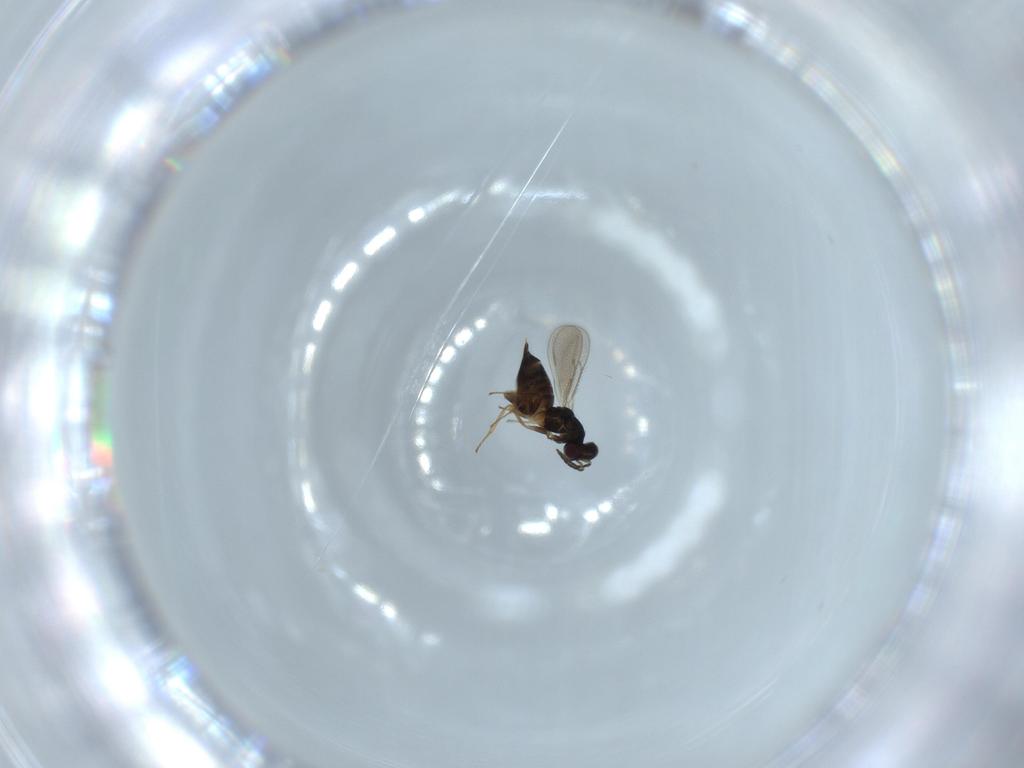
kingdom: Animalia
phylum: Arthropoda
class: Insecta
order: Hymenoptera
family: Eulophidae
